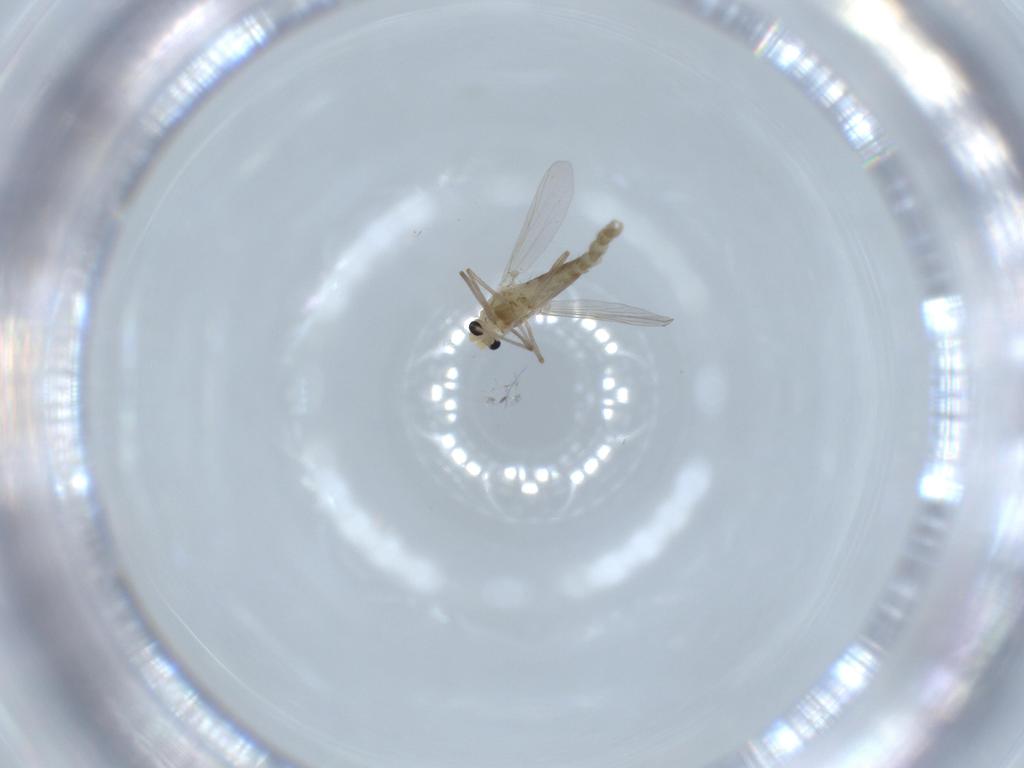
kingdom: Animalia
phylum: Arthropoda
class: Insecta
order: Diptera
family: Chironomidae
